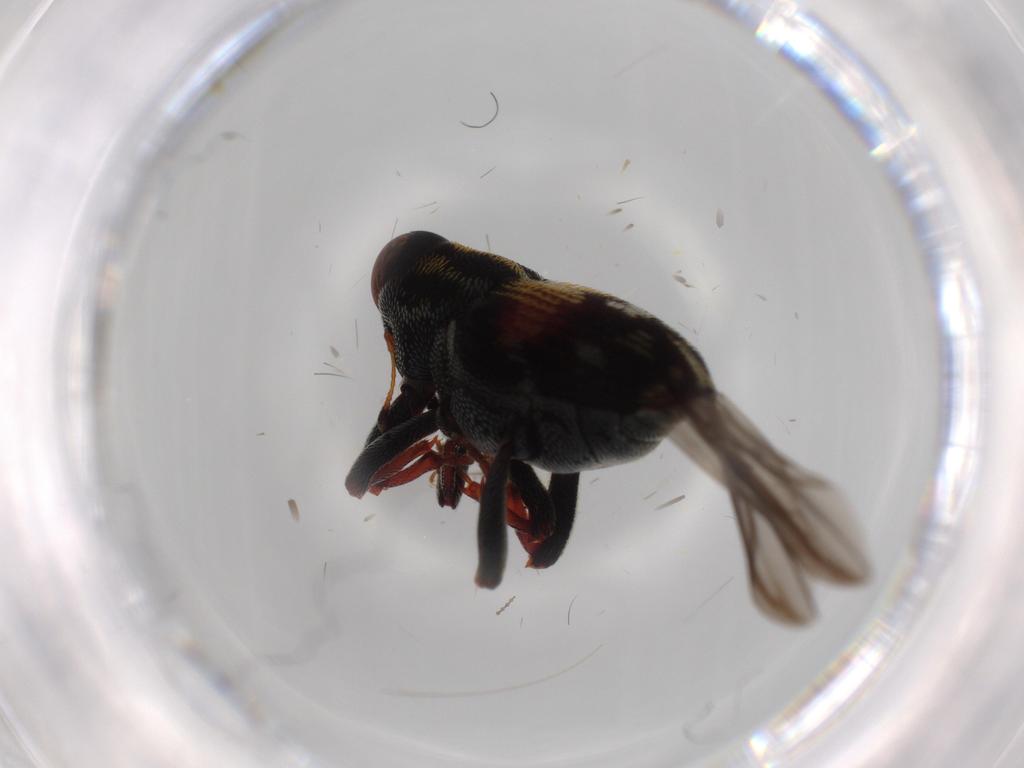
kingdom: Animalia
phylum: Arthropoda
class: Insecta
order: Coleoptera
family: Curculionidae
